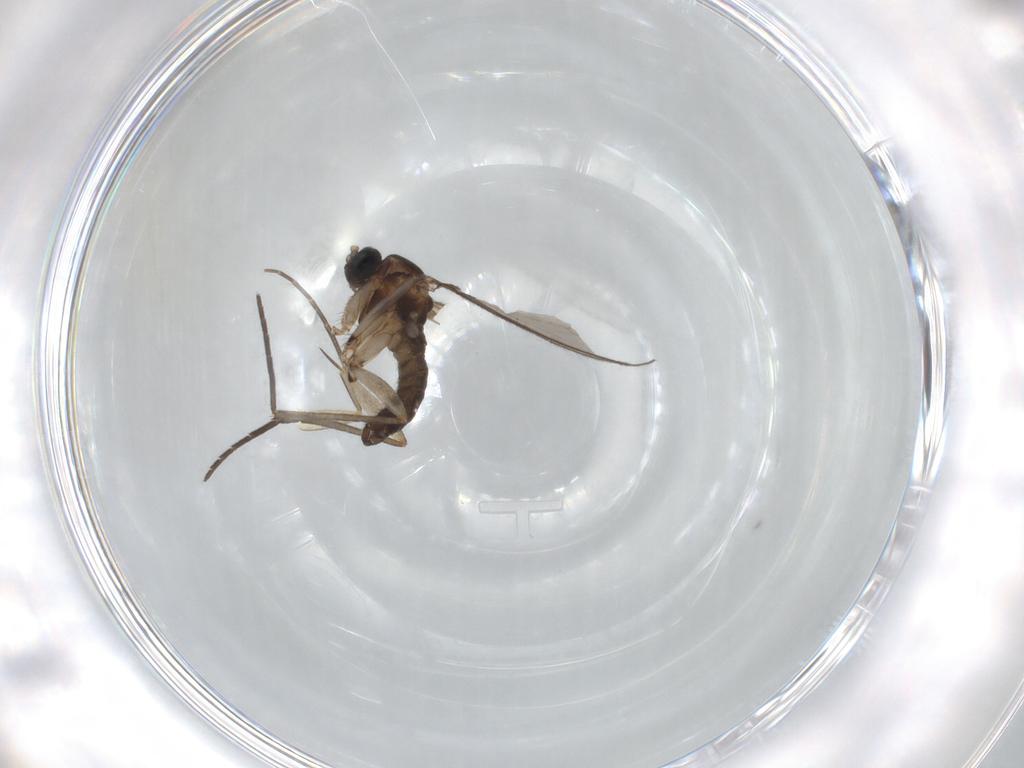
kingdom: Animalia
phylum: Arthropoda
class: Insecta
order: Diptera
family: Sciaridae
